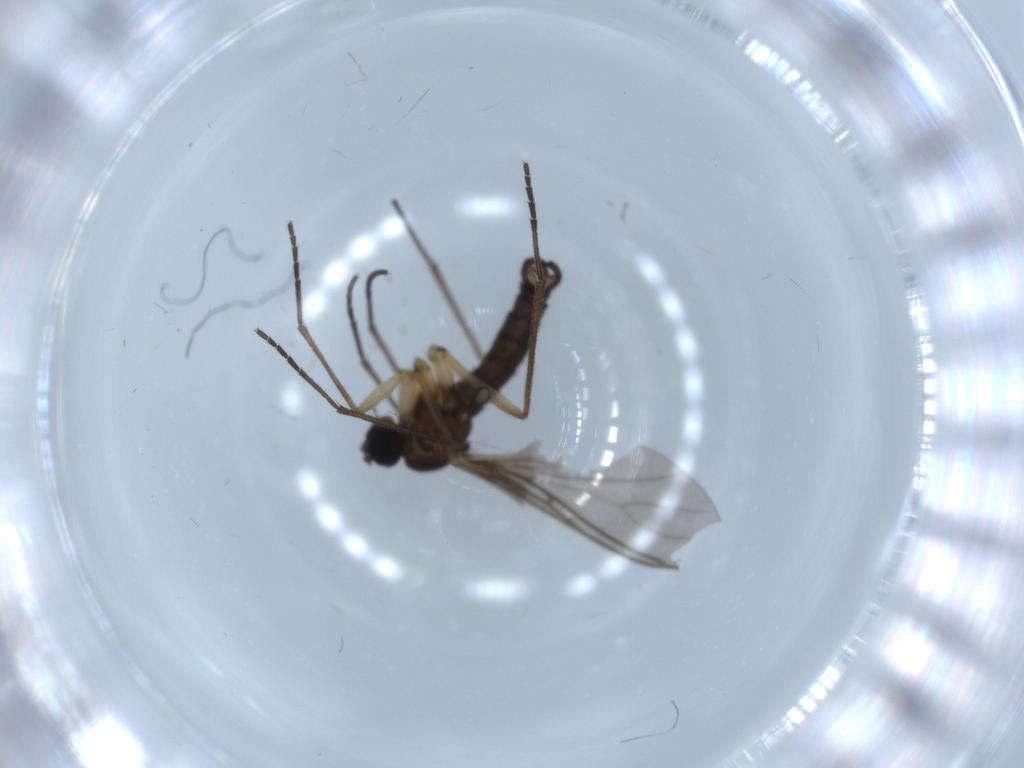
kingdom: Animalia
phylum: Arthropoda
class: Insecta
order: Diptera
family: Sciaridae
